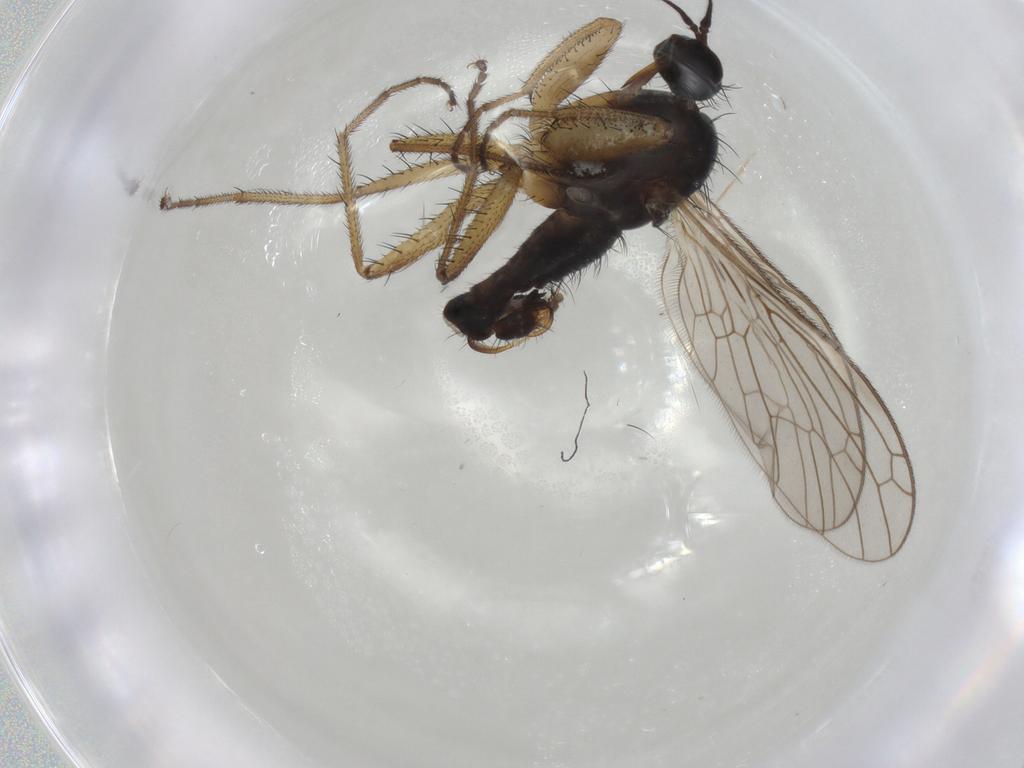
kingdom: Animalia
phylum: Arthropoda
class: Insecta
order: Diptera
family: Empididae
